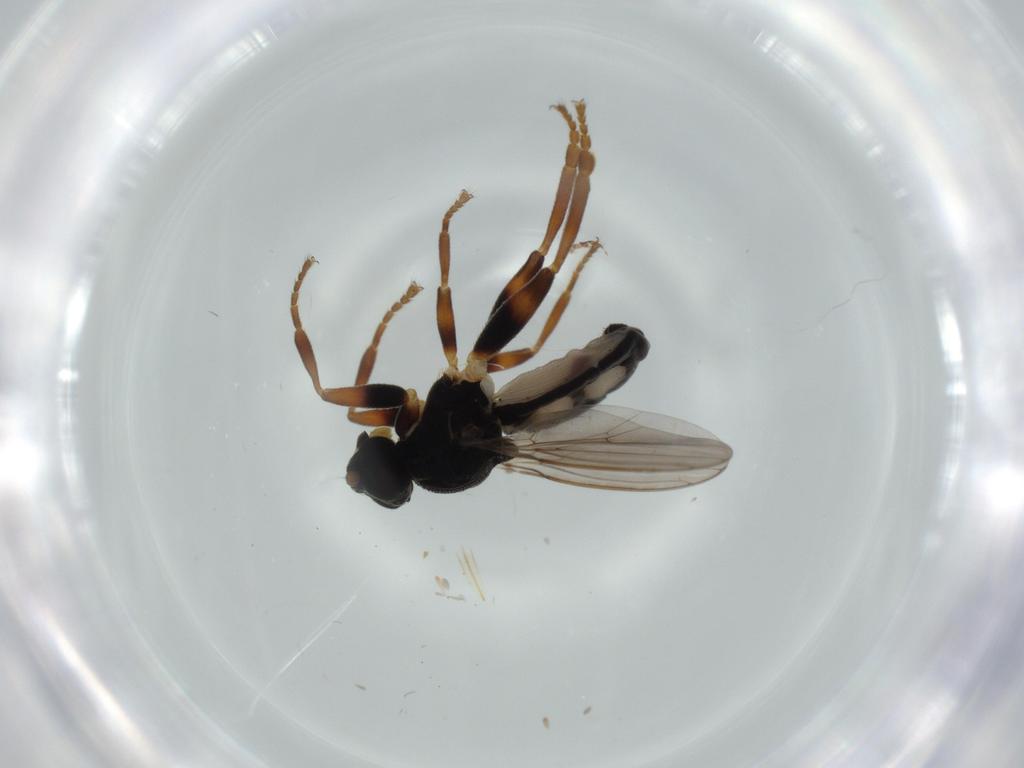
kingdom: Animalia
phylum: Arthropoda
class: Insecta
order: Diptera
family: Sphaeroceridae
